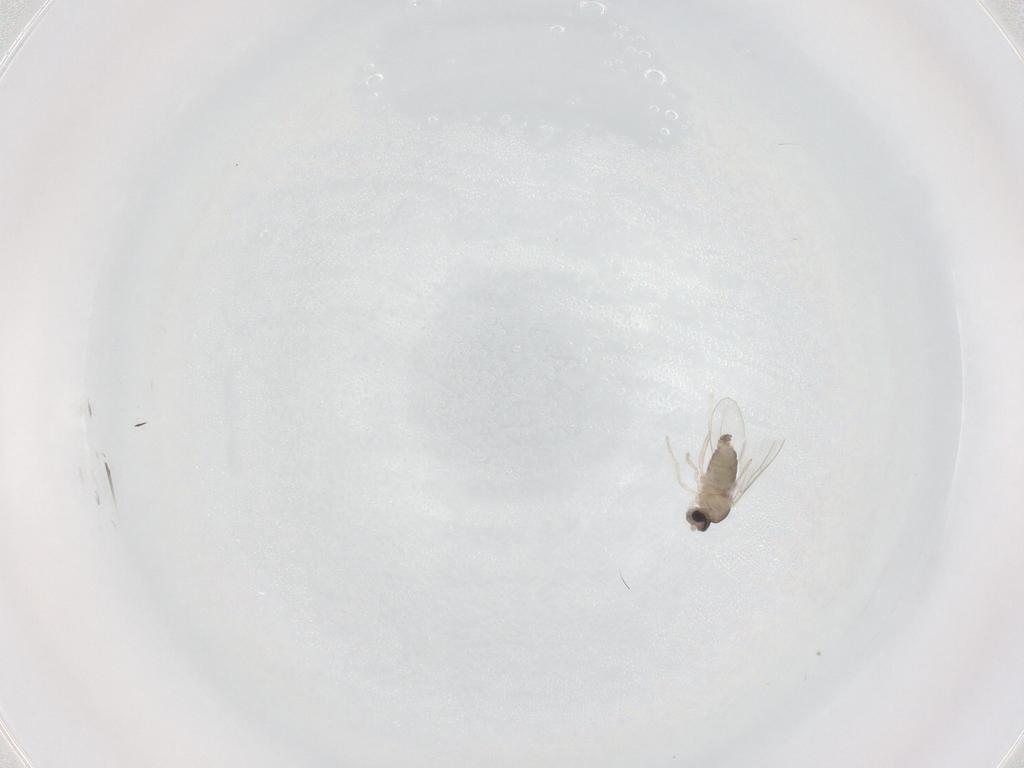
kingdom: Animalia
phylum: Arthropoda
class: Insecta
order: Diptera
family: Cecidomyiidae
